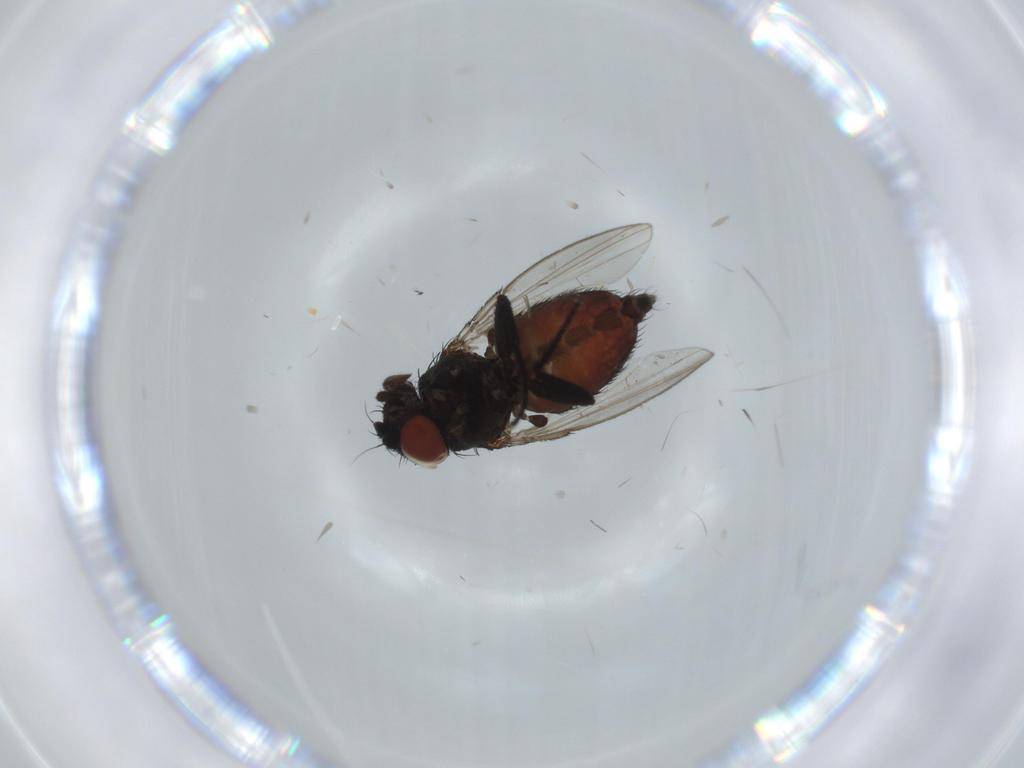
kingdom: Animalia
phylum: Arthropoda
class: Insecta
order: Diptera
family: Milichiidae
